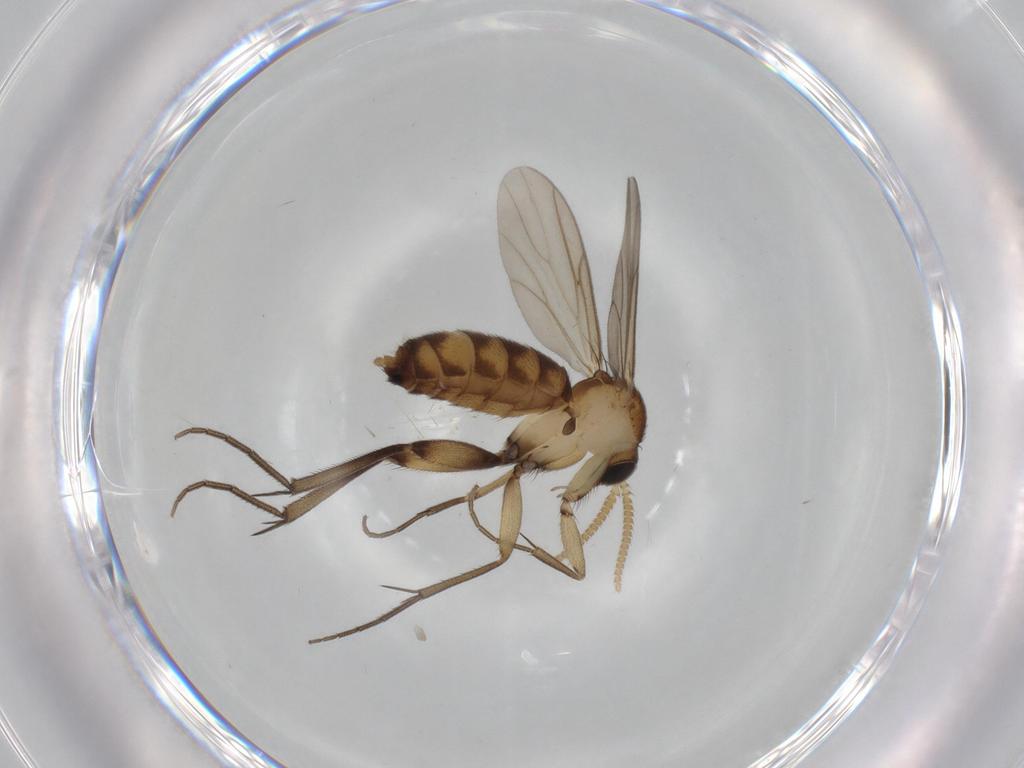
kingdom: Animalia
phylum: Arthropoda
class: Insecta
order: Diptera
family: Mycetophilidae
